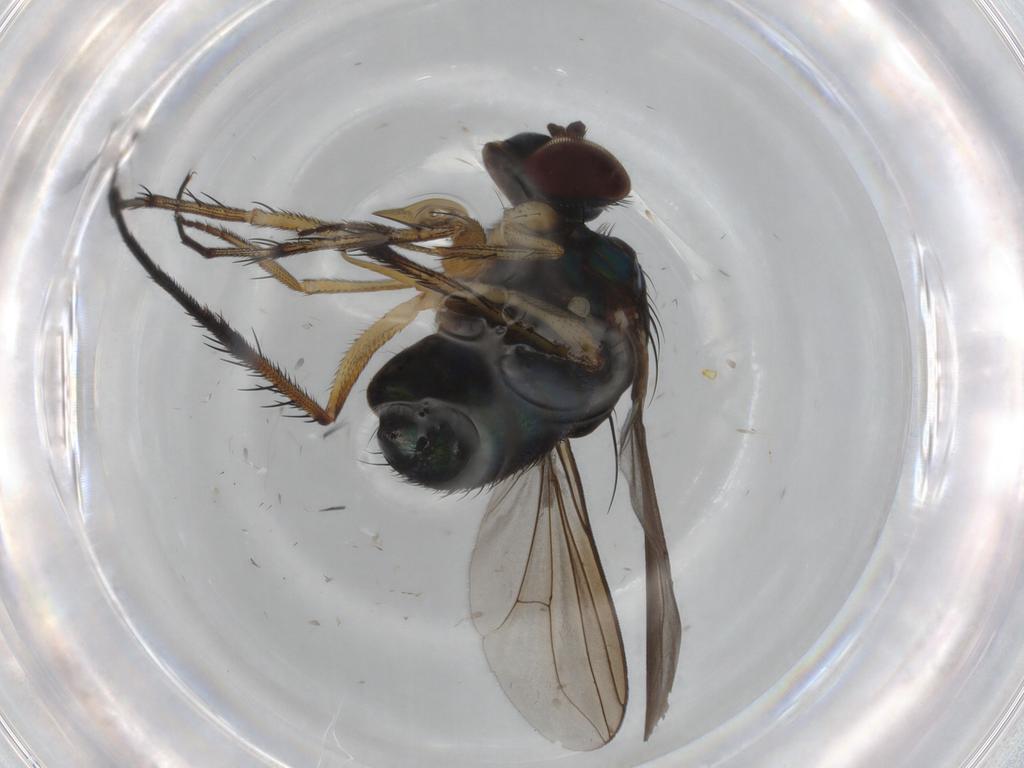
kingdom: Animalia
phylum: Arthropoda
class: Insecta
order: Diptera
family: Dolichopodidae
